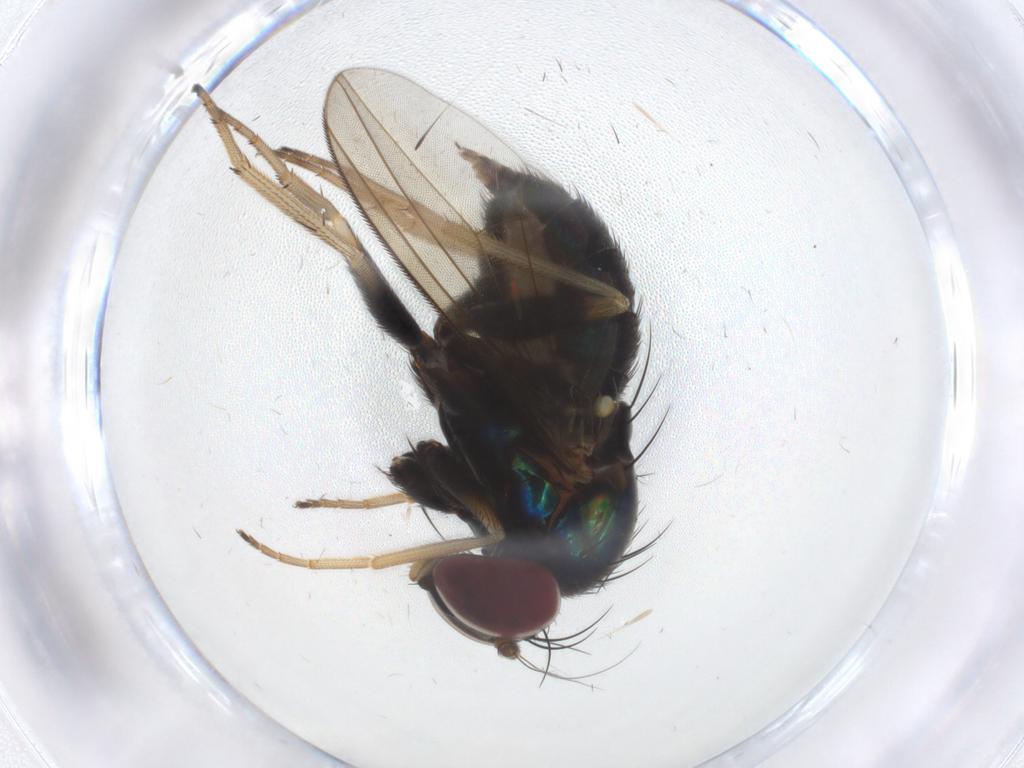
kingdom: Animalia
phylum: Arthropoda
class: Insecta
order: Diptera
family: Dolichopodidae
